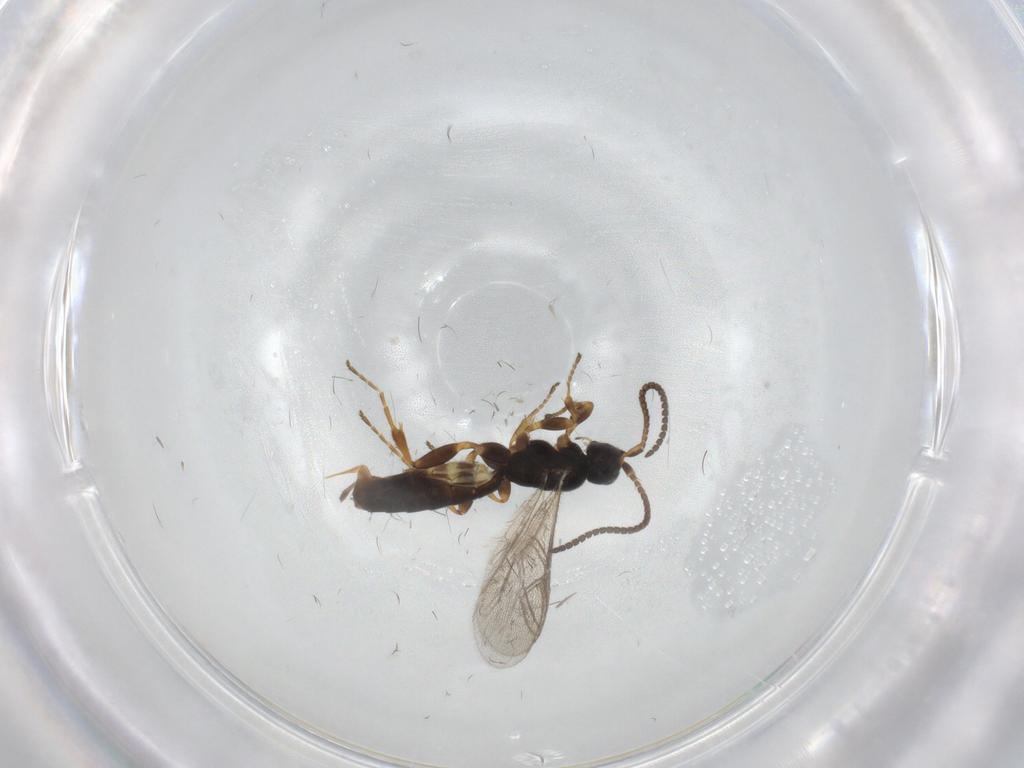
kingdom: Animalia
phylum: Arthropoda
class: Insecta
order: Hymenoptera
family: Ichneumonidae
